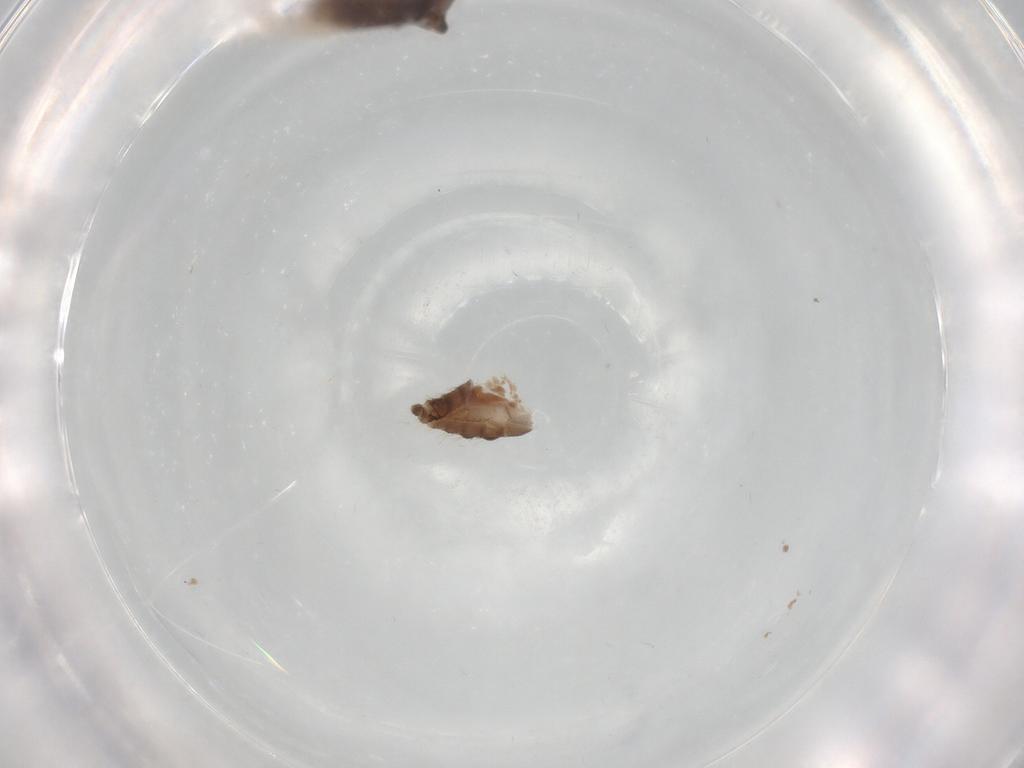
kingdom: Animalia
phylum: Arthropoda
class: Insecta
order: Diptera
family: Chironomidae
